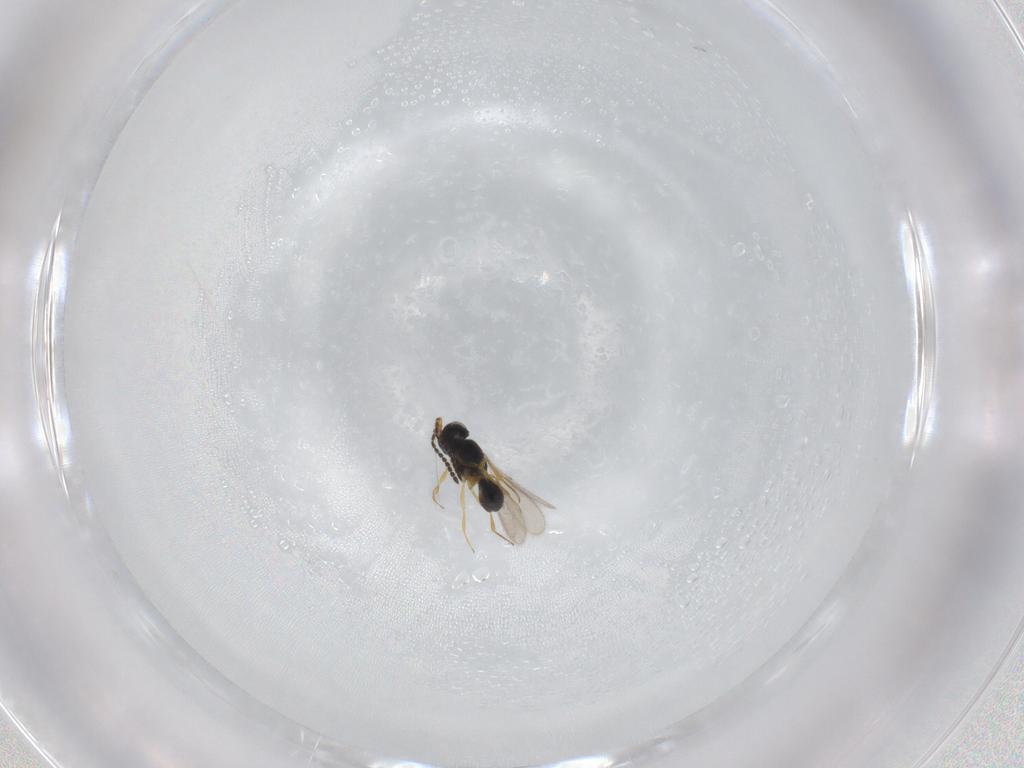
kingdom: Animalia
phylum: Arthropoda
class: Insecta
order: Hymenoptera
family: Scelionidae
